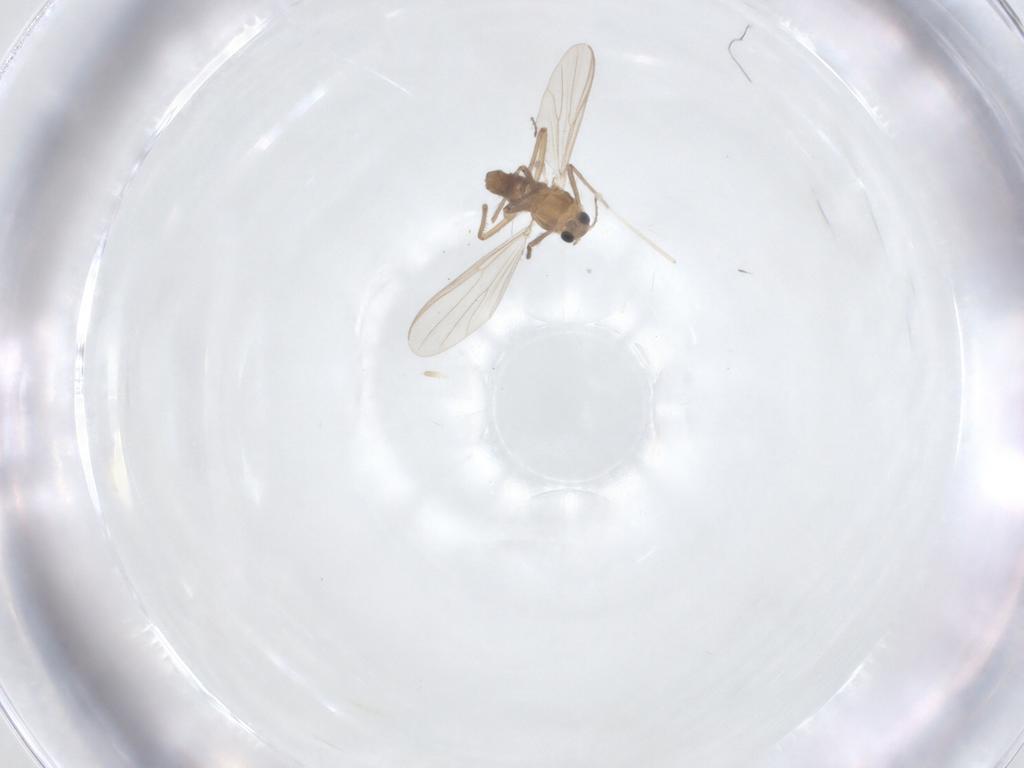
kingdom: Animalia
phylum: Arthropoda
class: Insecta
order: Diptera
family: Cecidomyiidae
